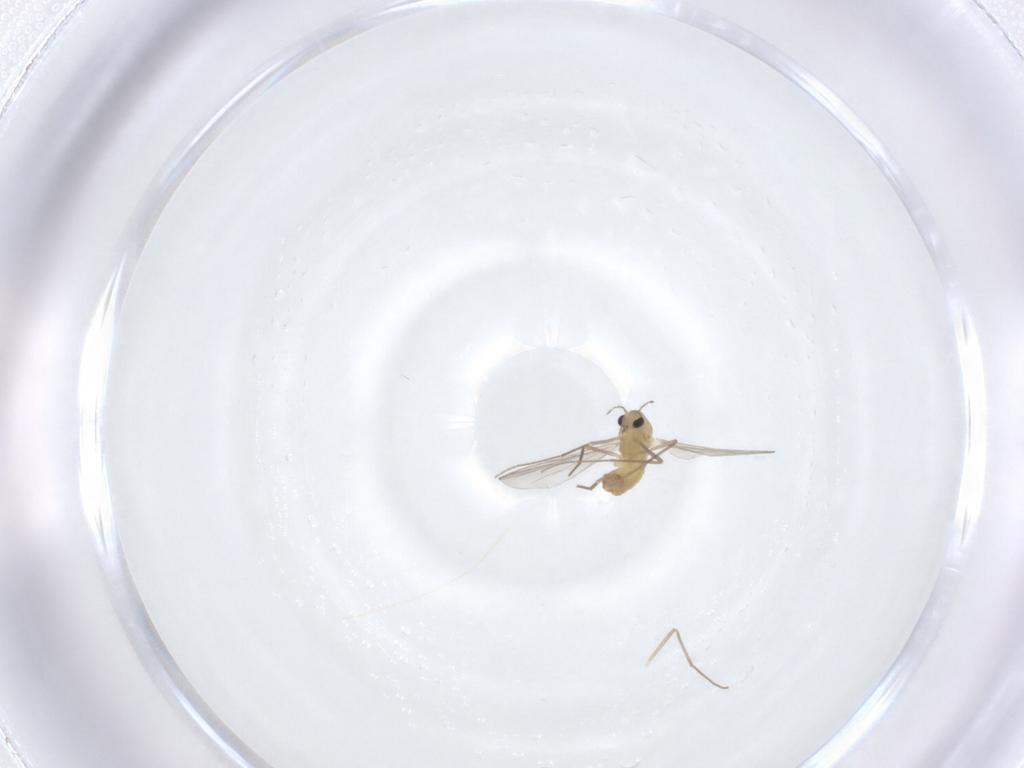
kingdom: Animalia
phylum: Arthropoda
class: Insecta
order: Diptera
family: Chironomidae
